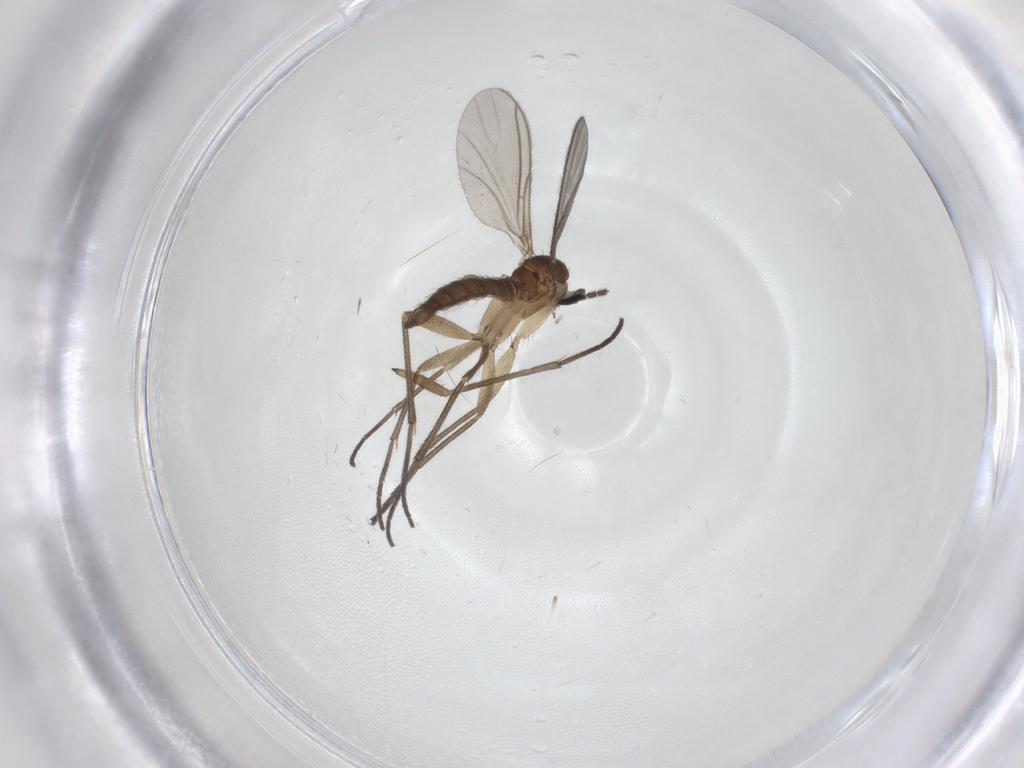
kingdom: Animalia
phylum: Arthropoda
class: Insecta
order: Diptera
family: Sciaridae
